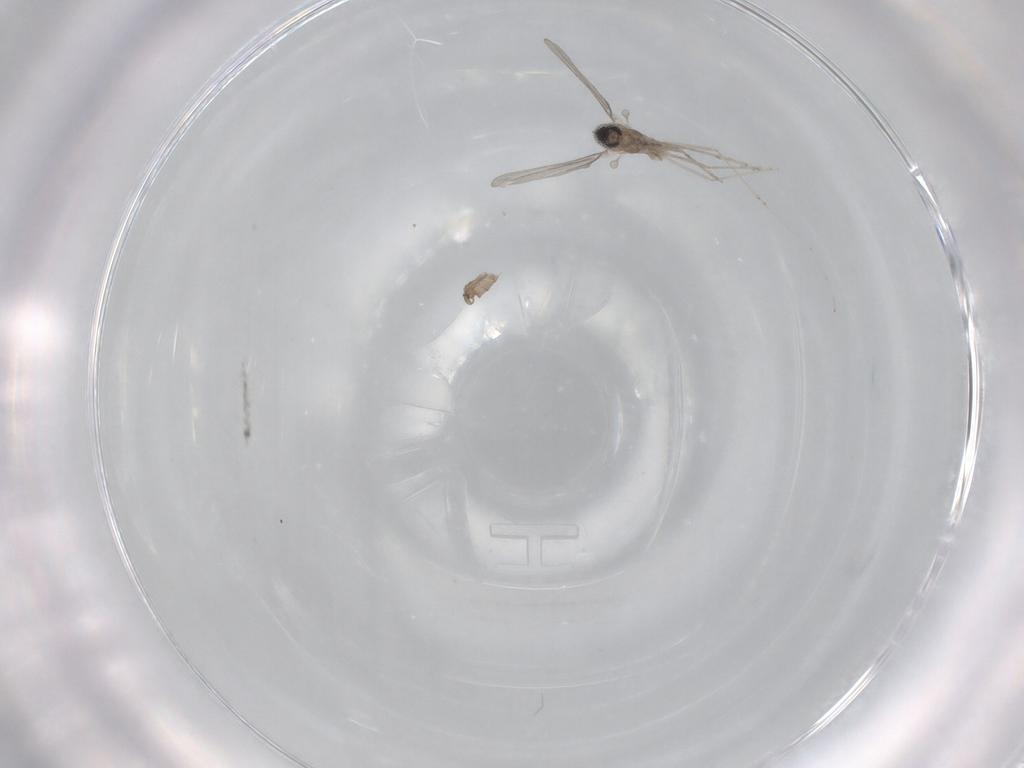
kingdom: Animalia
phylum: Arthropoda
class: Insecta
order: Diptera
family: Cecidomyiidae
